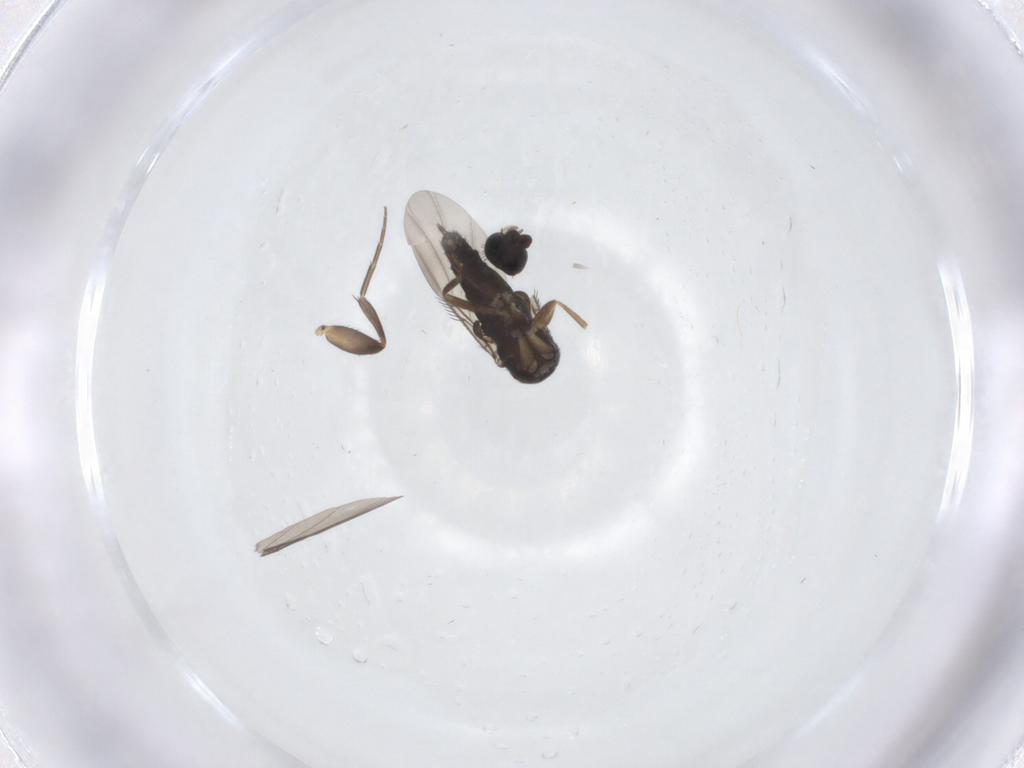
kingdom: Animalia
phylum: Arthropoda
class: Insecta
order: Diptera
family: Phoridae
